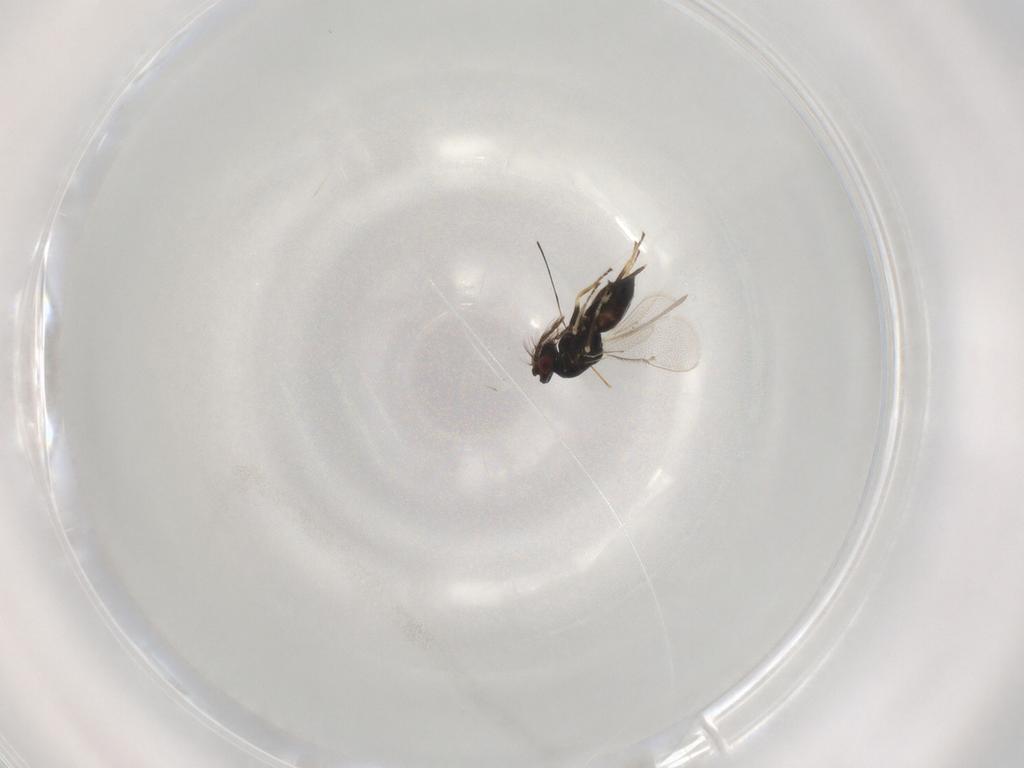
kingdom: Animalia
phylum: Arthropoda
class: Insecta
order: Hymenoptera
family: Eulophidae
